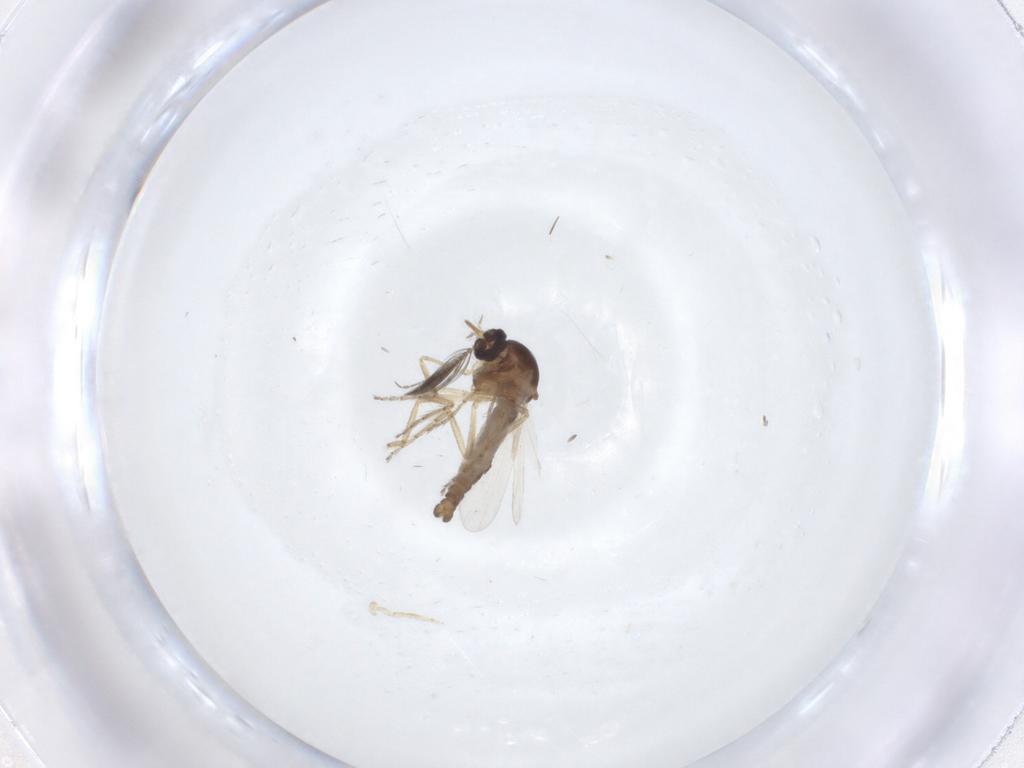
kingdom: Animalia
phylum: Arthropoda
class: Insecta
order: Diptera
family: Ceratopogonidae
